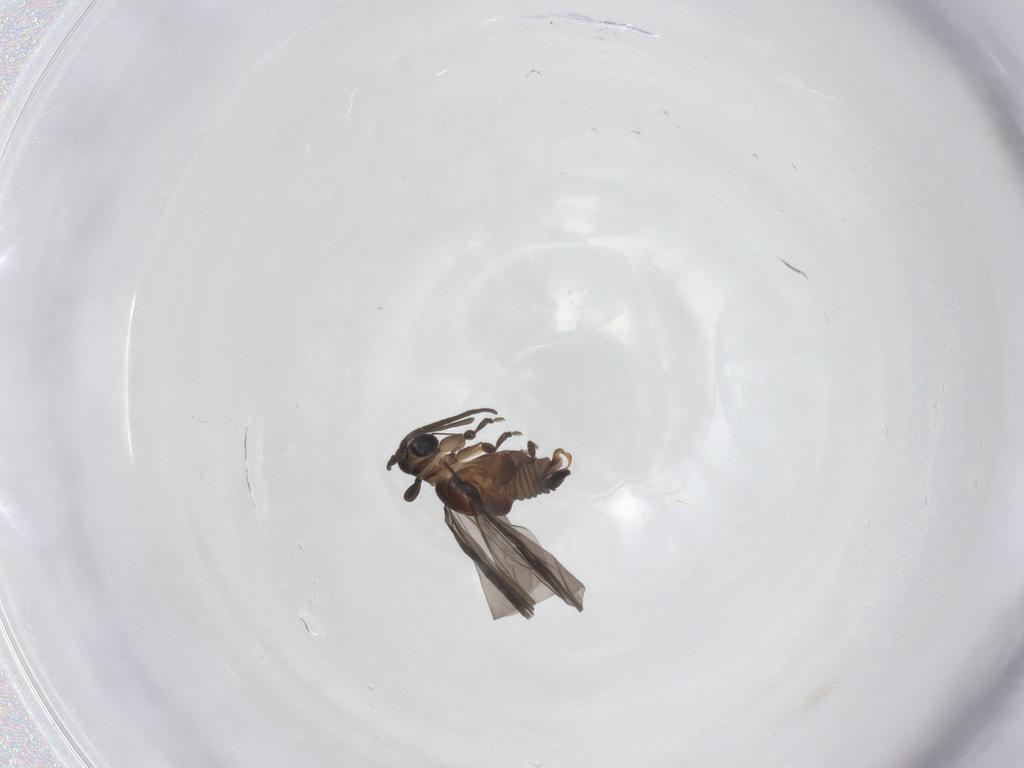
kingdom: Animalia
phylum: Arthropoda
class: Insecta
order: Strepsiptera
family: Myrmecolacidae
